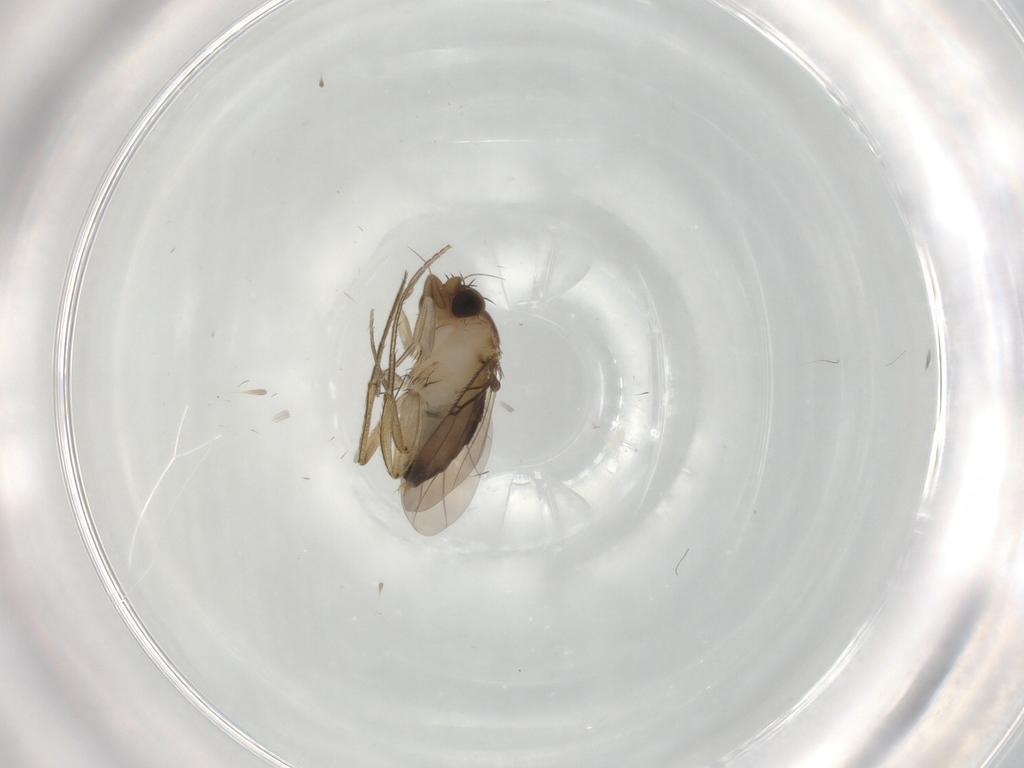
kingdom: Animalia
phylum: Arthropoda
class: Insecta
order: Diptera
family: Phoridae
